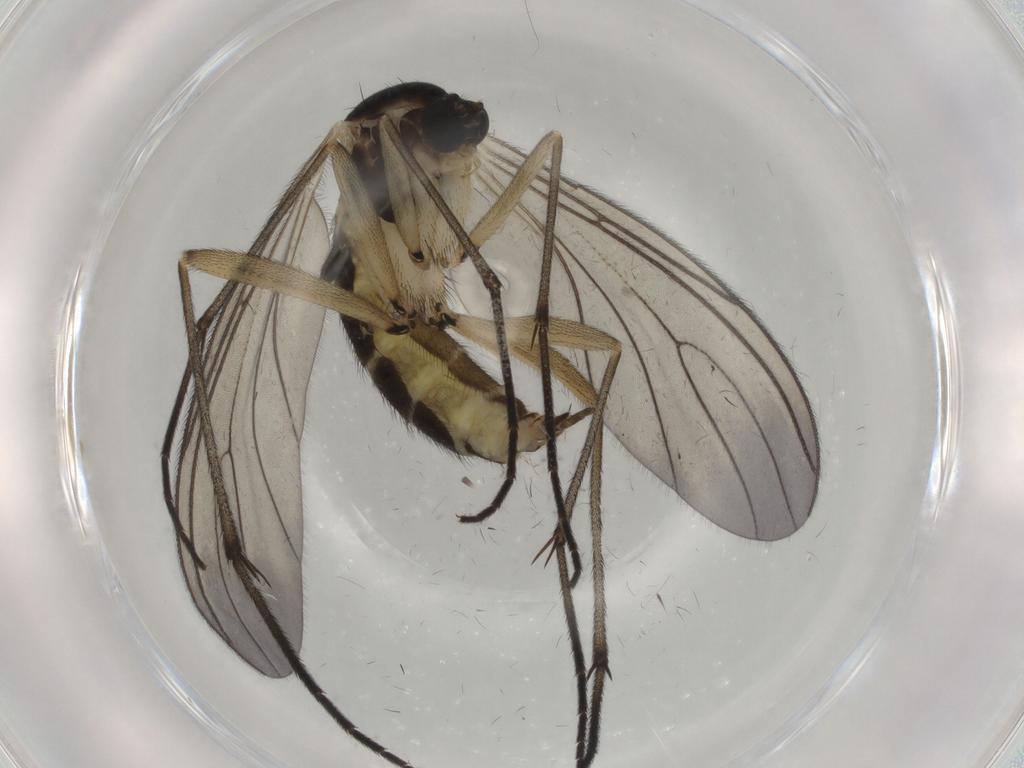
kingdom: Animalia
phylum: Arthropoda
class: Insecta
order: Diptera
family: Sciaridae
